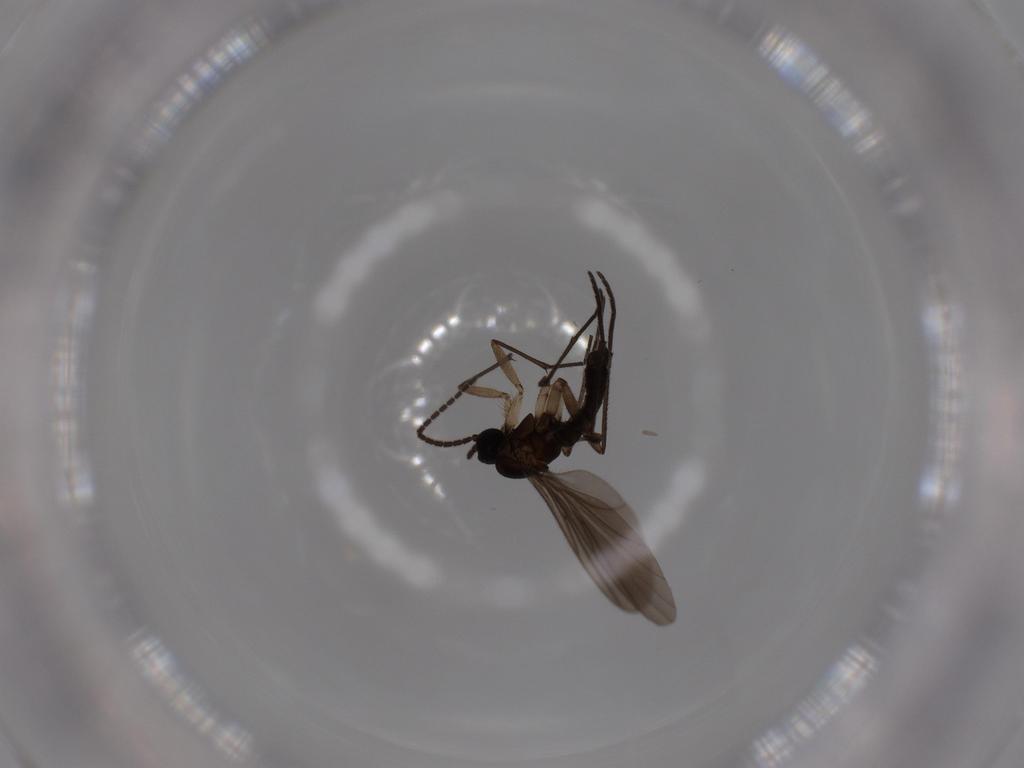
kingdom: Animalia
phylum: Arthropoda
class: Insecta
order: Diptera
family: Sciaridae
